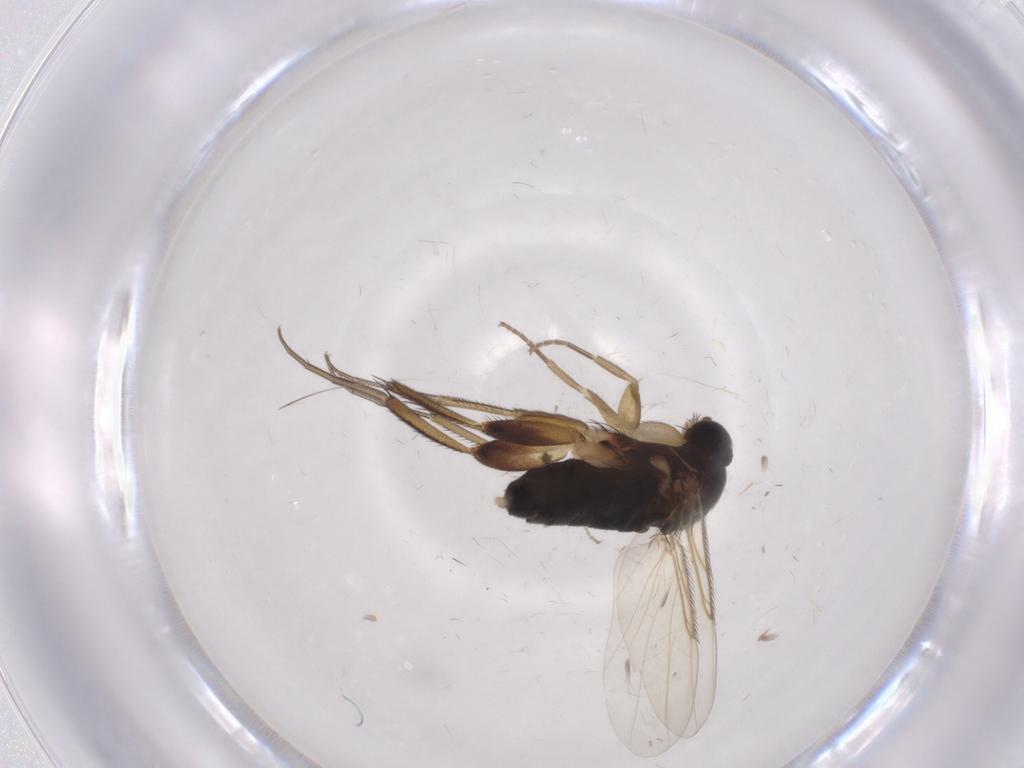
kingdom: Animalia
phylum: Arthropoda
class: Insecta
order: Diptera
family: Phoridae
